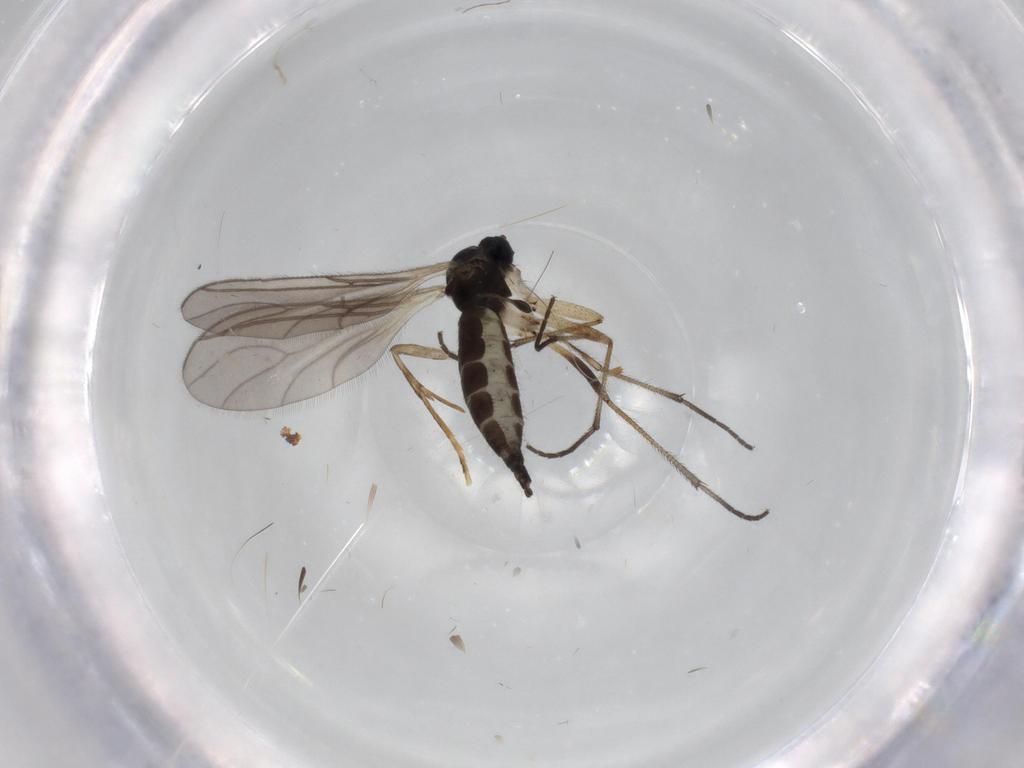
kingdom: Animalia
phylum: Arthropoda
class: Insecta
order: Diptera
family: Sciaridae
